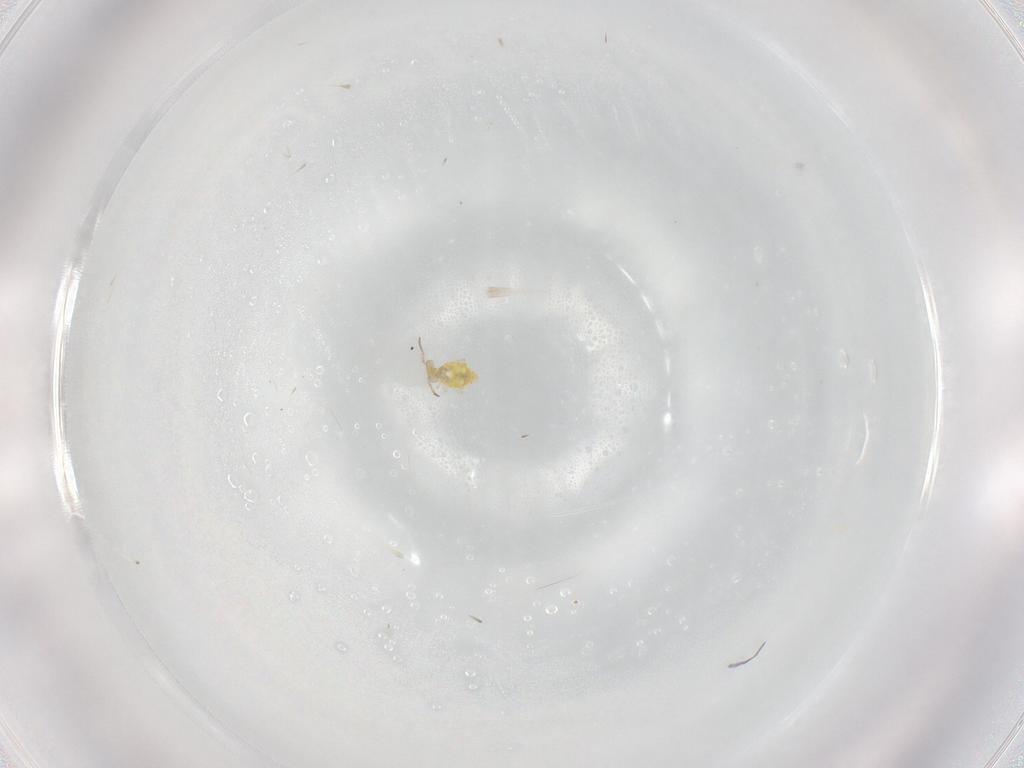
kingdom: Animalia
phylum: Arthropoda
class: Collembola
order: Symphypleona
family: Bourletiellidae
